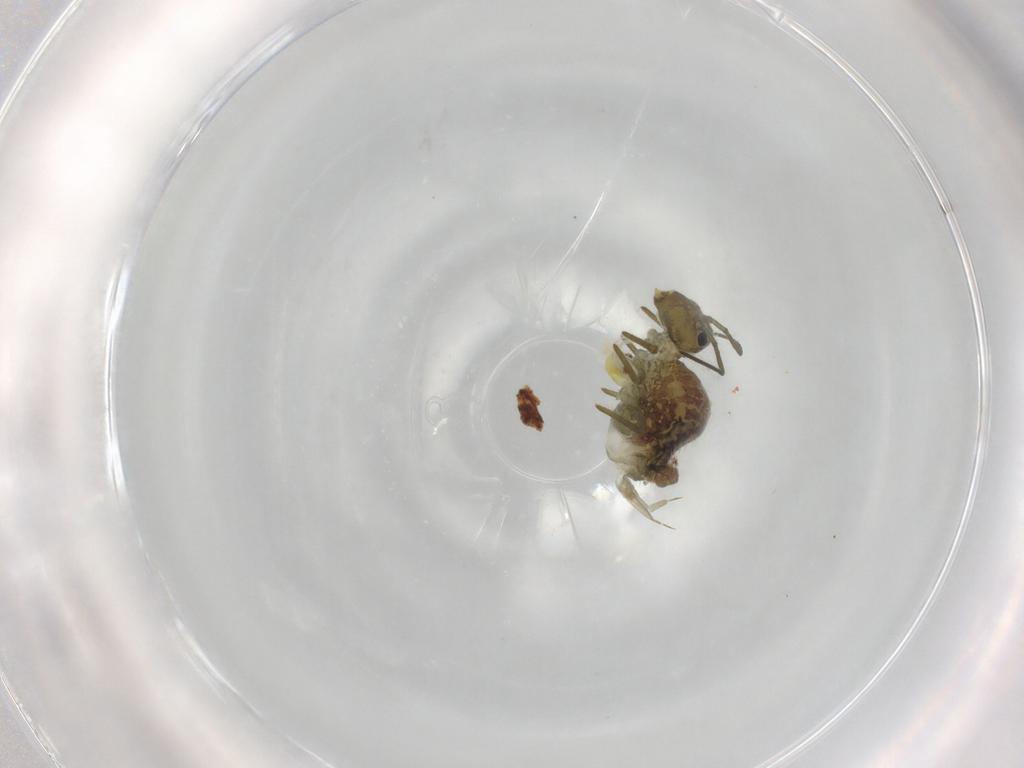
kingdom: Animalia
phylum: Arthropoda
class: Collembola
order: Symphypleona
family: Sminthuridae
